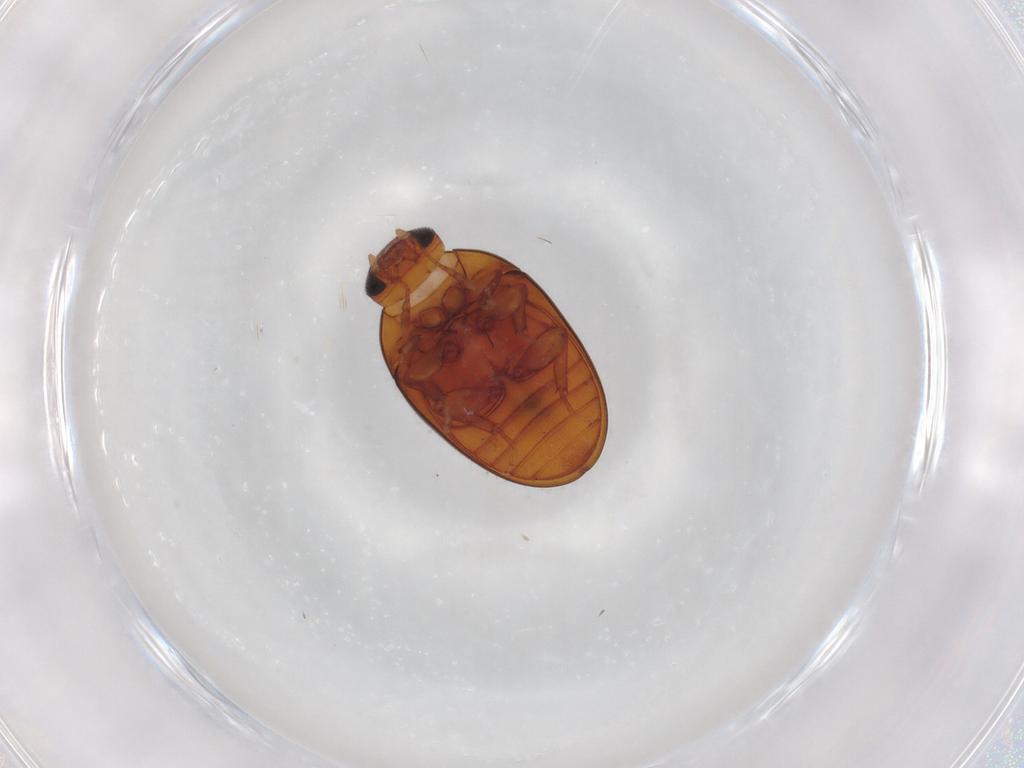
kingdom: Animalia
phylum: Arthropoda
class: Insecta
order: Coleoptera
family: Phalacridae
